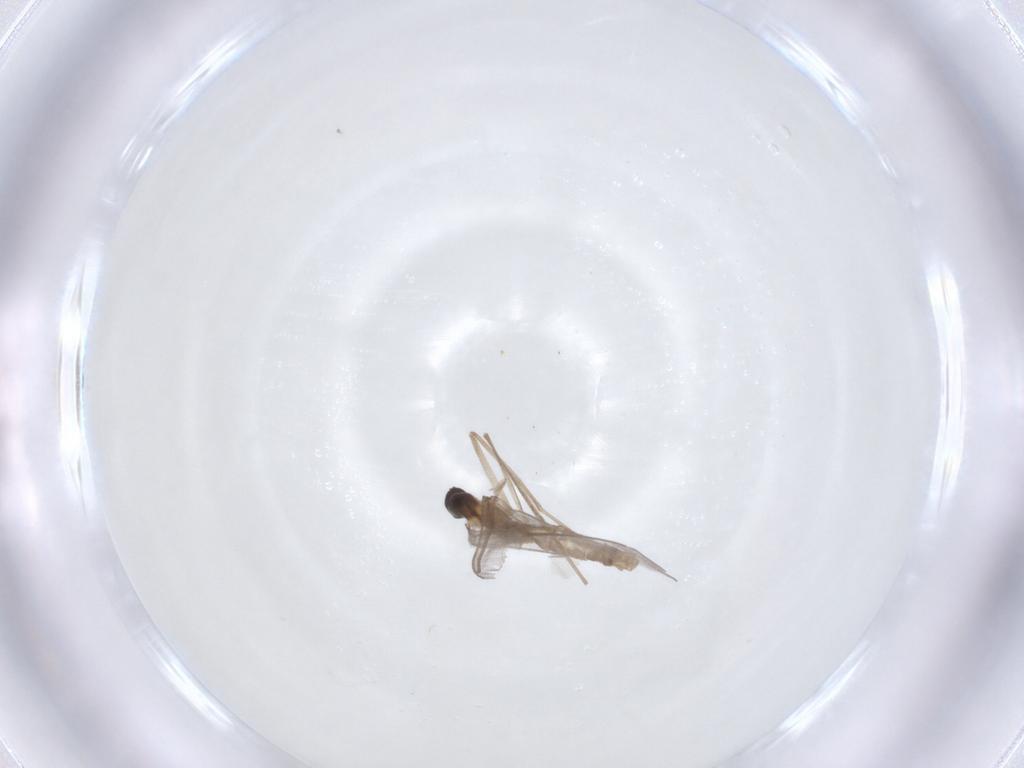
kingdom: Animalia
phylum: Arthropoda
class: Insecta
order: Diptera
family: Cecidomyiidae
